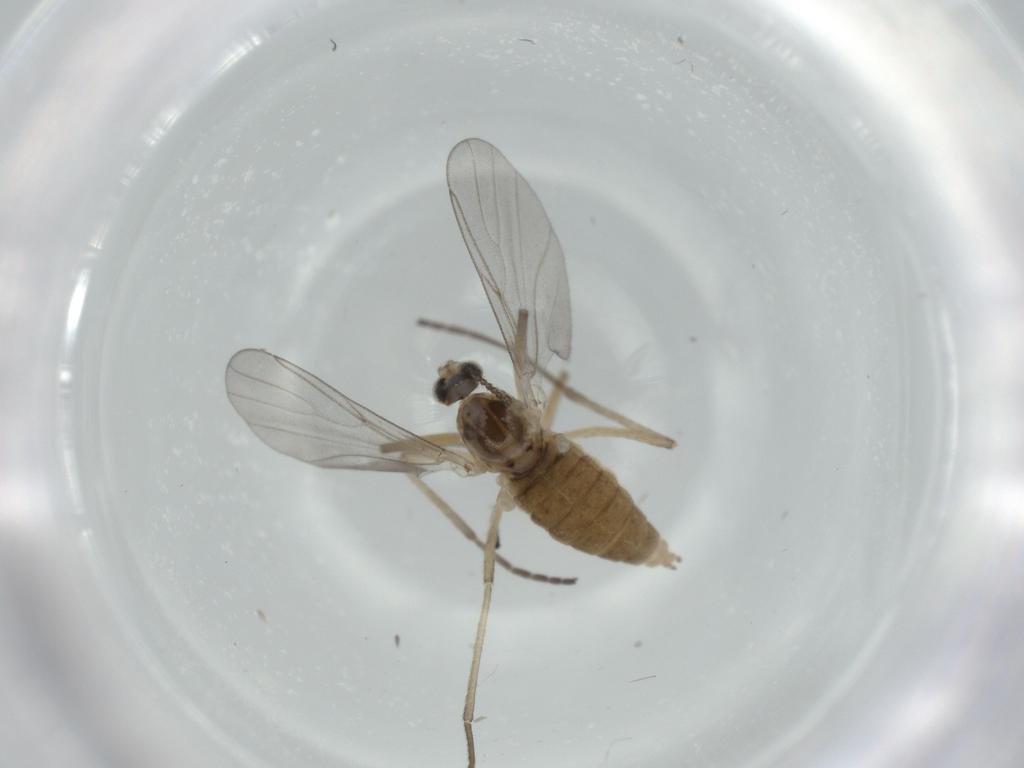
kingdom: Animalia
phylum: Arthropoda
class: Insecta
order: Diptera
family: Cecidomyiidae
